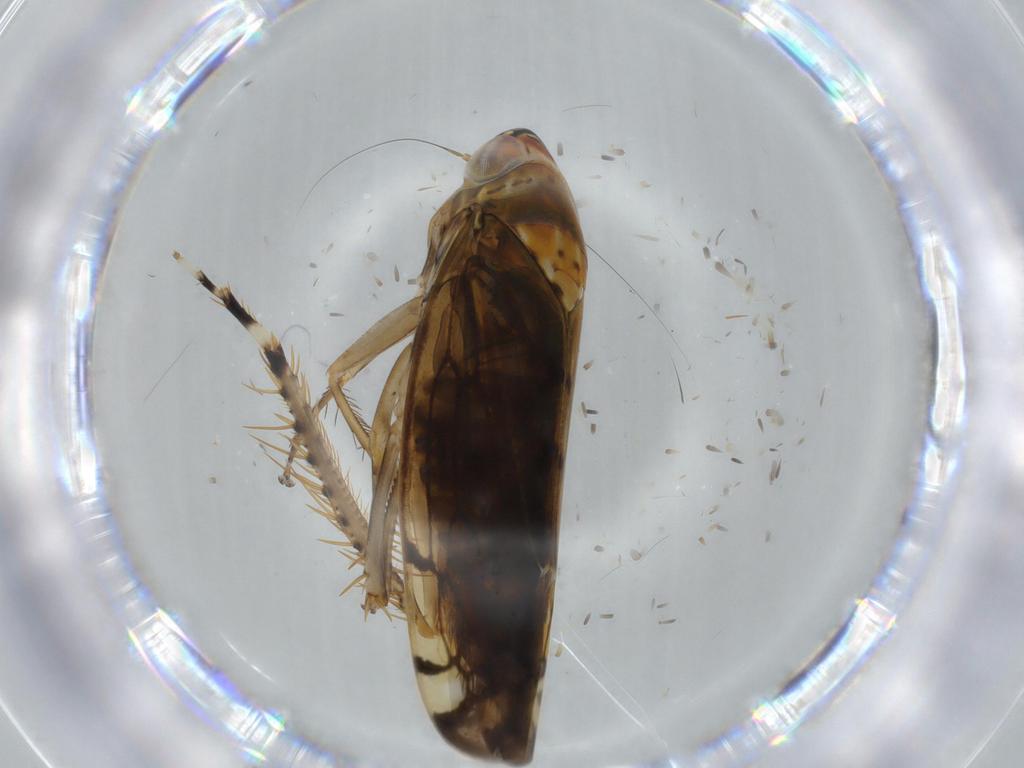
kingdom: Animalia
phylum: Arthropoda
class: Insecta
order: Hemiptera
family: Cicadellidae
